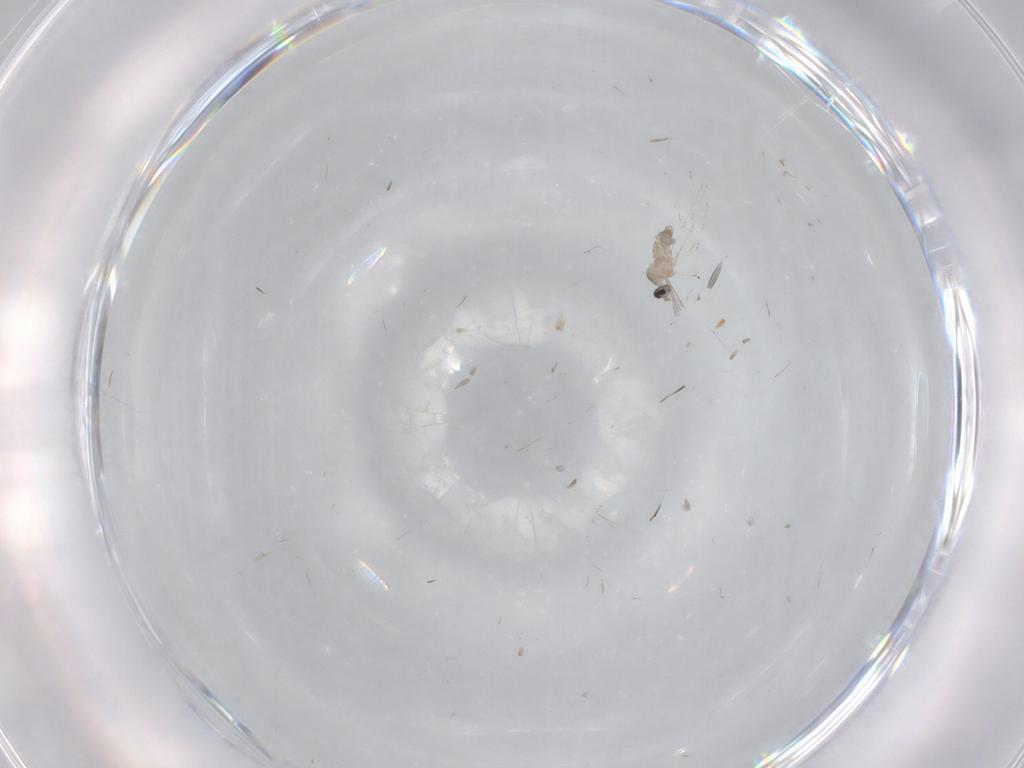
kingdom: Animalia
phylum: Arthropoda
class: Insecta
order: Diptera
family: Cecidomyiidae
